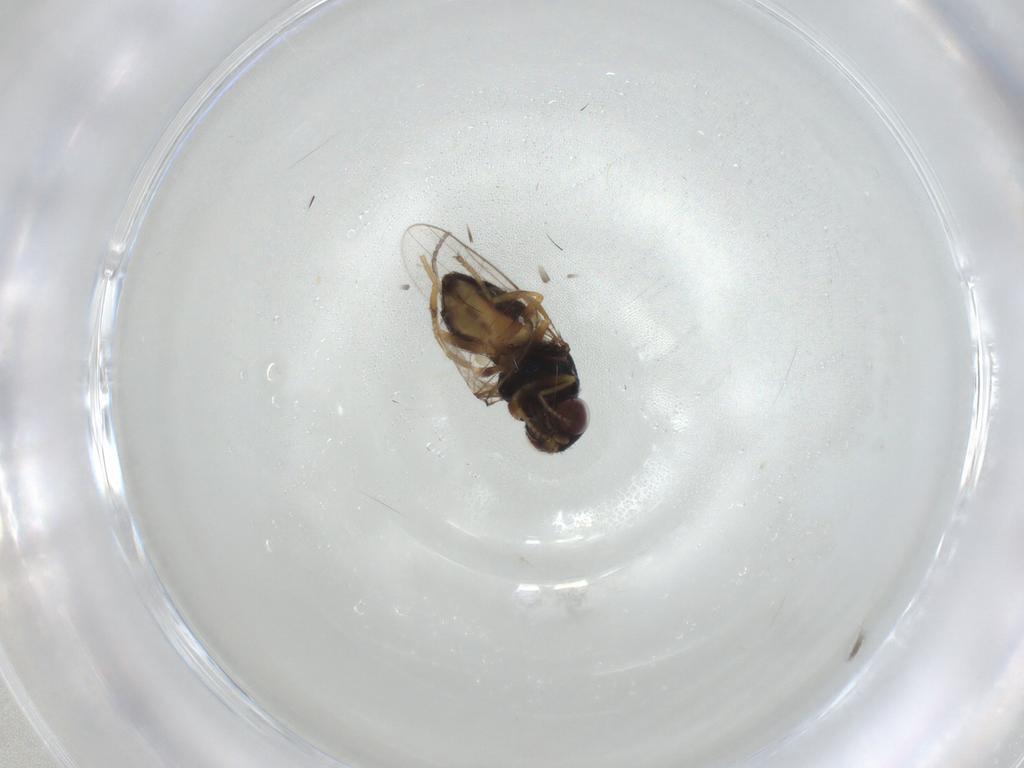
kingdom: Animalia
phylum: Arthropoda
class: Insecta
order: Diptera
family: Chloropidae
